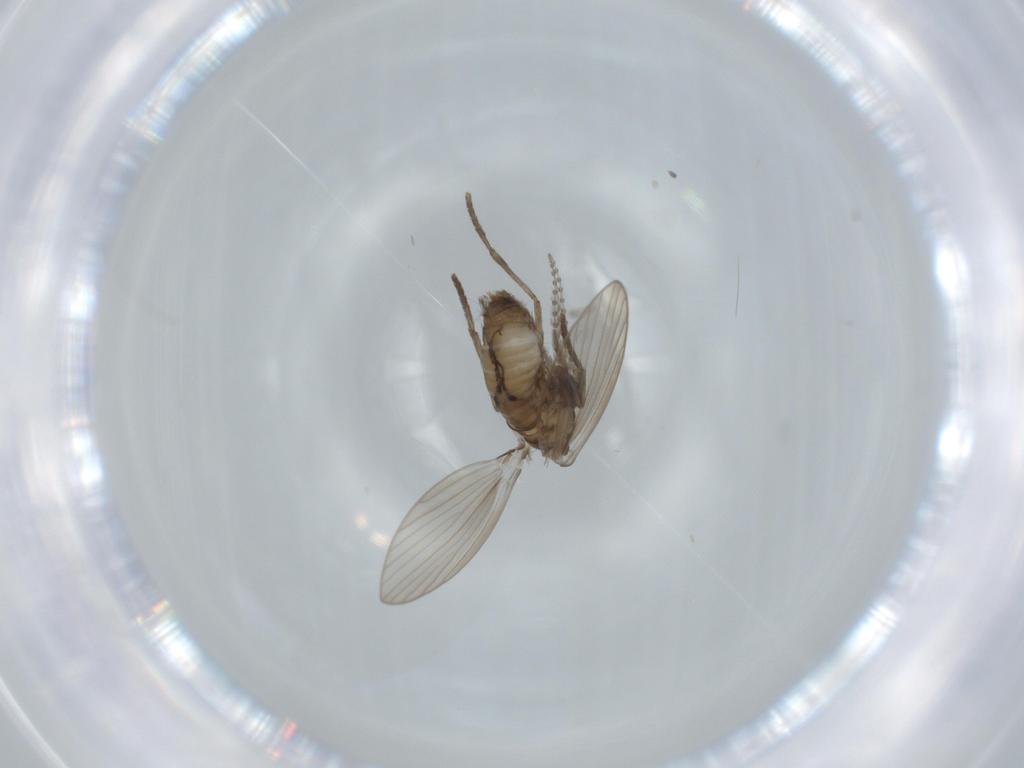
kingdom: Animalia
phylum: Arthropoda
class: Insecta
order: Diptera
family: Psychodidae
